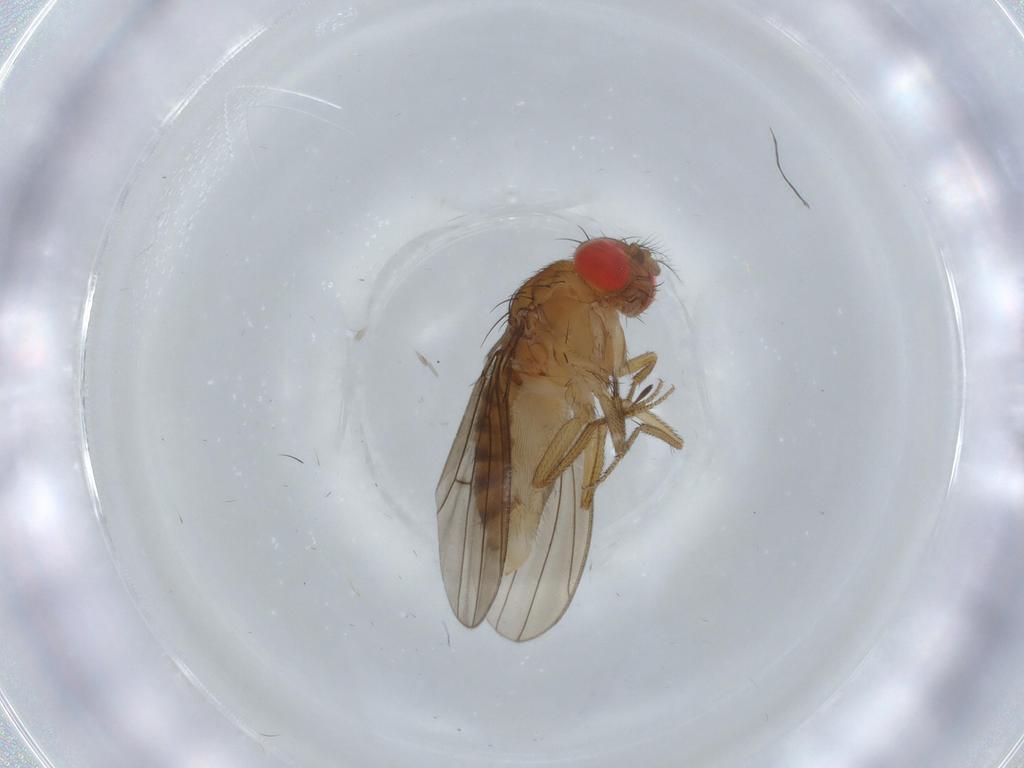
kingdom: Animalia
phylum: Arthropoda
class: Insecta
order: Diptera
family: Drosophilidae
